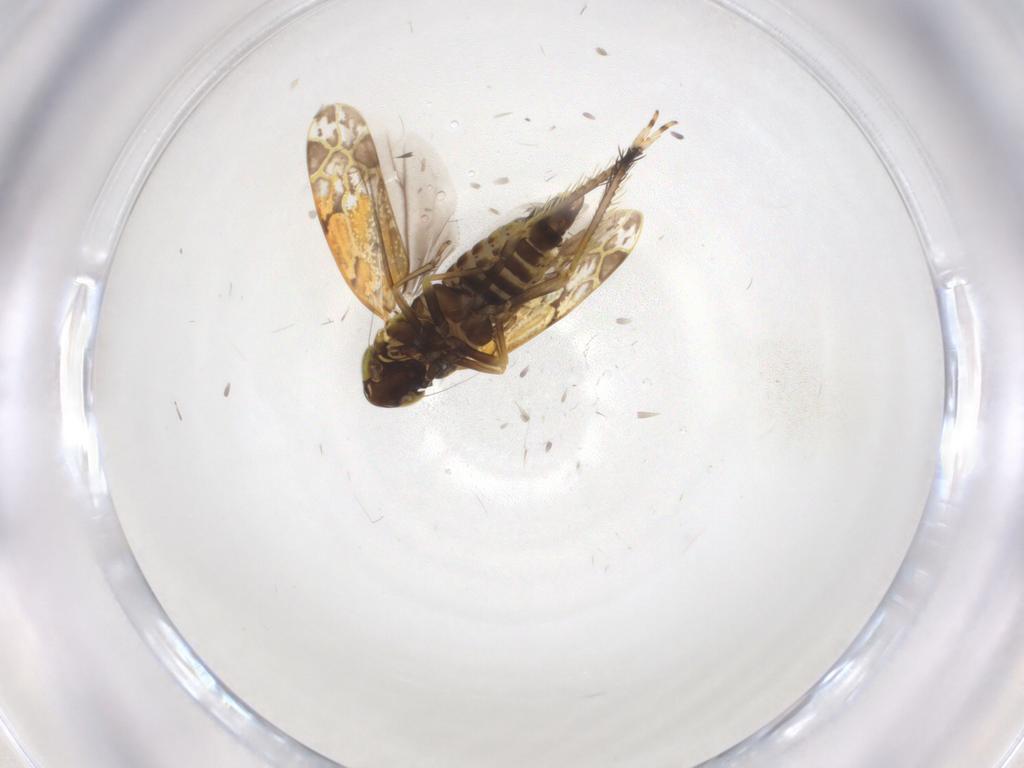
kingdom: Animalia
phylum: Arthropoda
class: Insecta
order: Hemiptera
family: Cicadellidae
